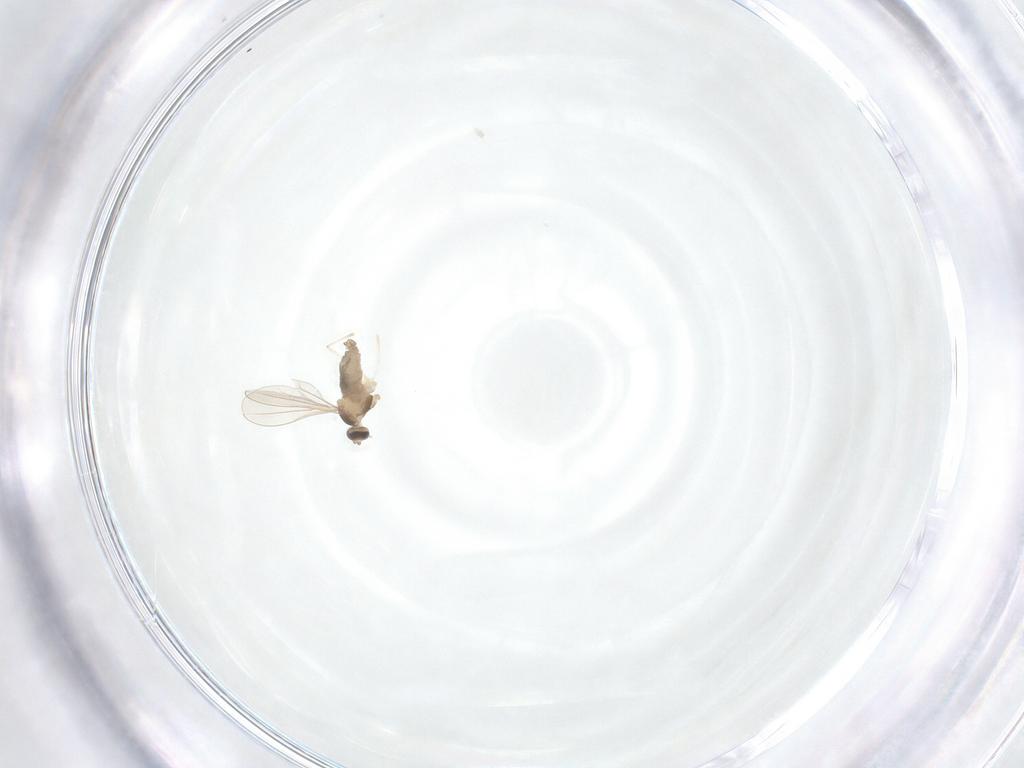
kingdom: Animalia
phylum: Arthropoda
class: Insecta
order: Diptera
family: Cecidomyiidae
